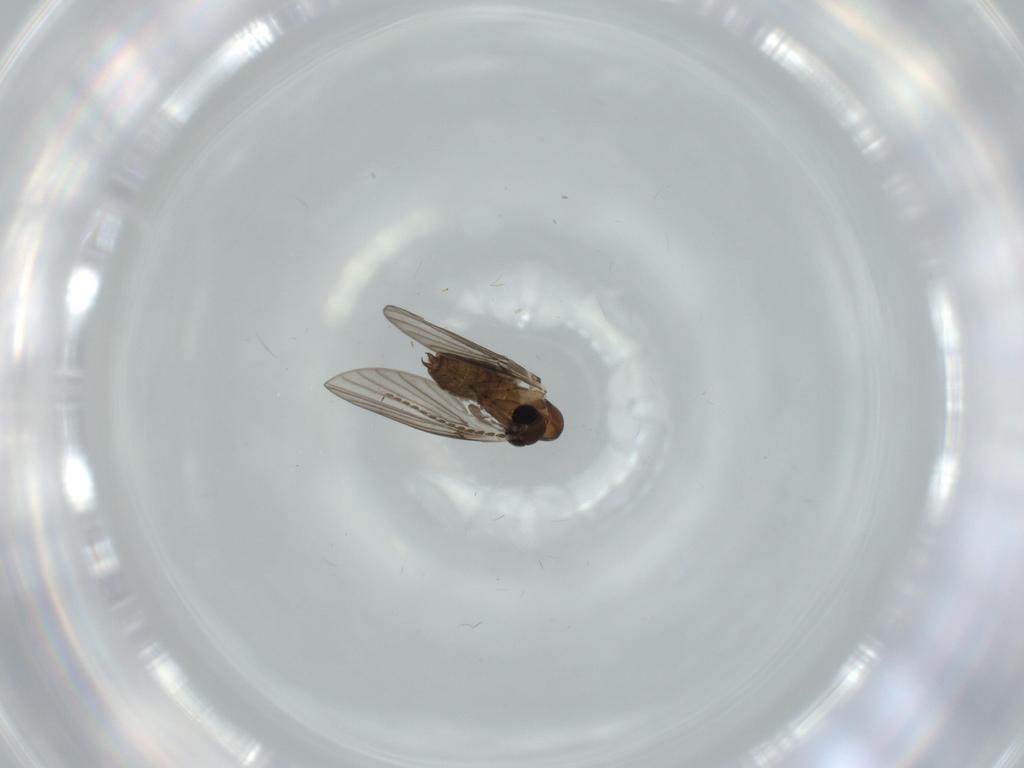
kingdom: Animalia
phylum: Arthropoda
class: Insecta
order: Diptera
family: Psychodidae
